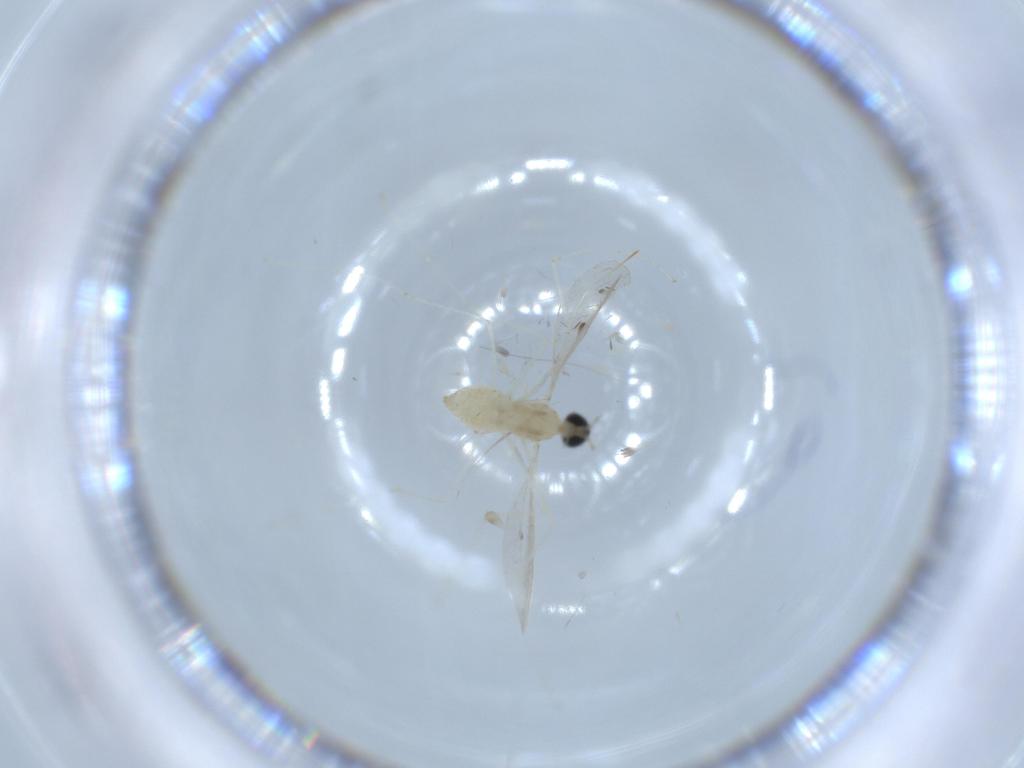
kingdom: Animalia
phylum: Arthropoda
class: Insecta
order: Diptera
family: Cecidomyiidae
